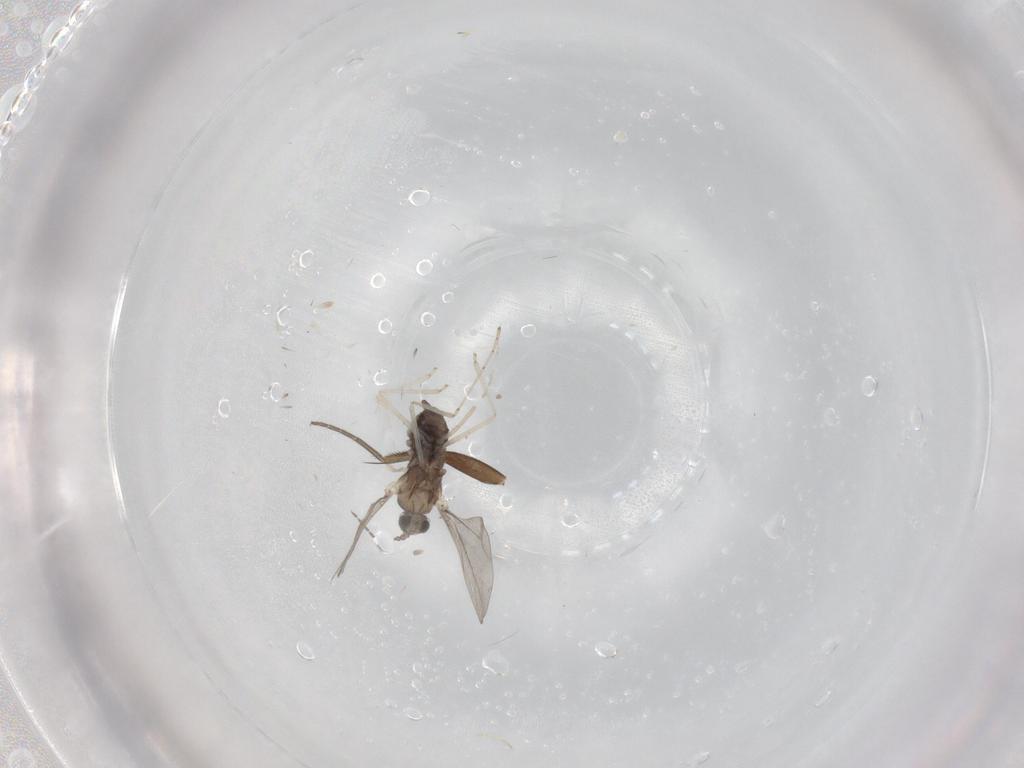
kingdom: Animalia
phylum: Arthropoda
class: Insecta
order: Diptera
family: Phoridae
